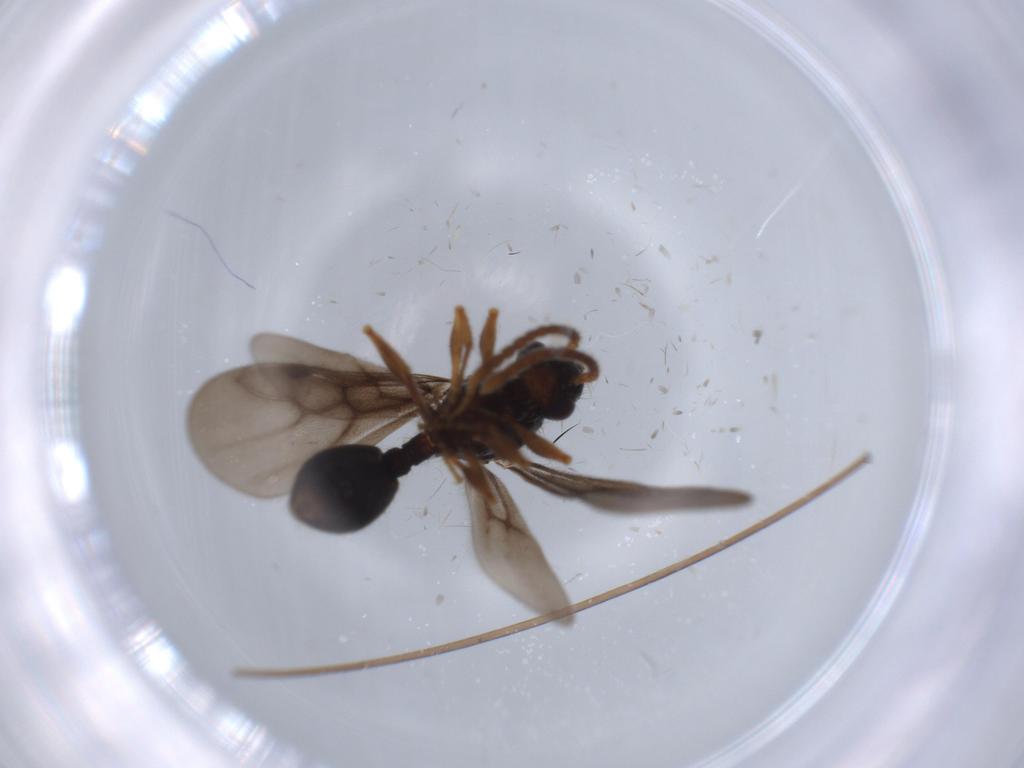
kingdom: Animalia
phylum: Arthropoda
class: Insecta
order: Hymenoptera
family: Formicidae
